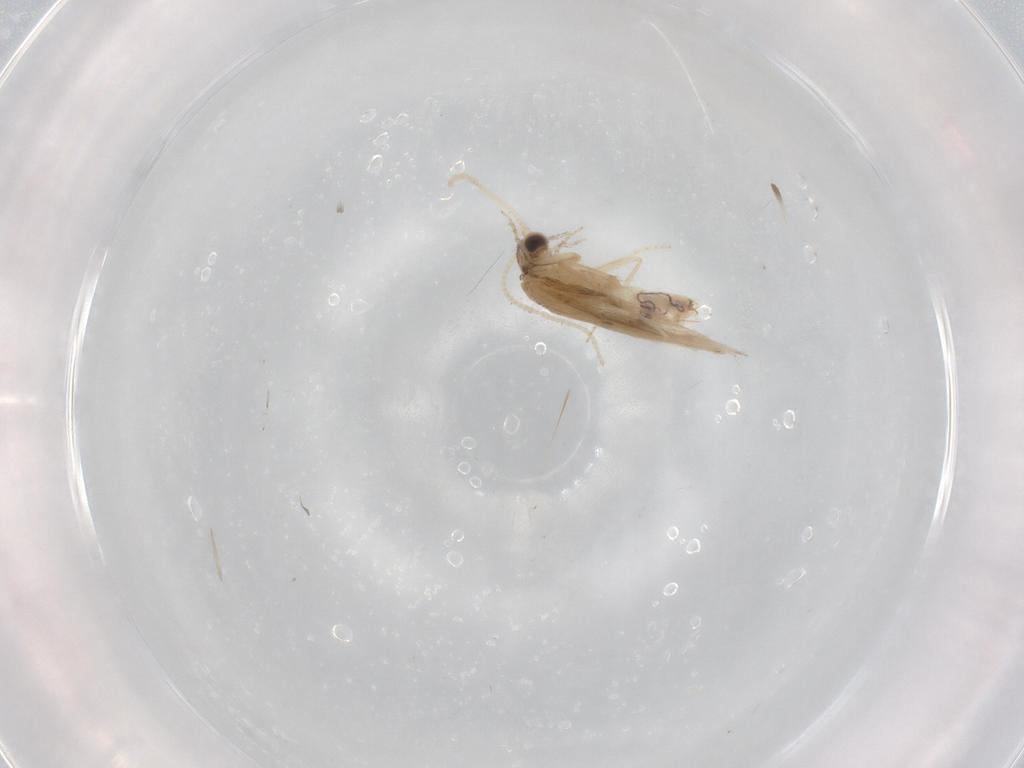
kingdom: Animalia
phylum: Arthropoda
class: Insecta
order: Trichoptera
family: Hydroptilidae
